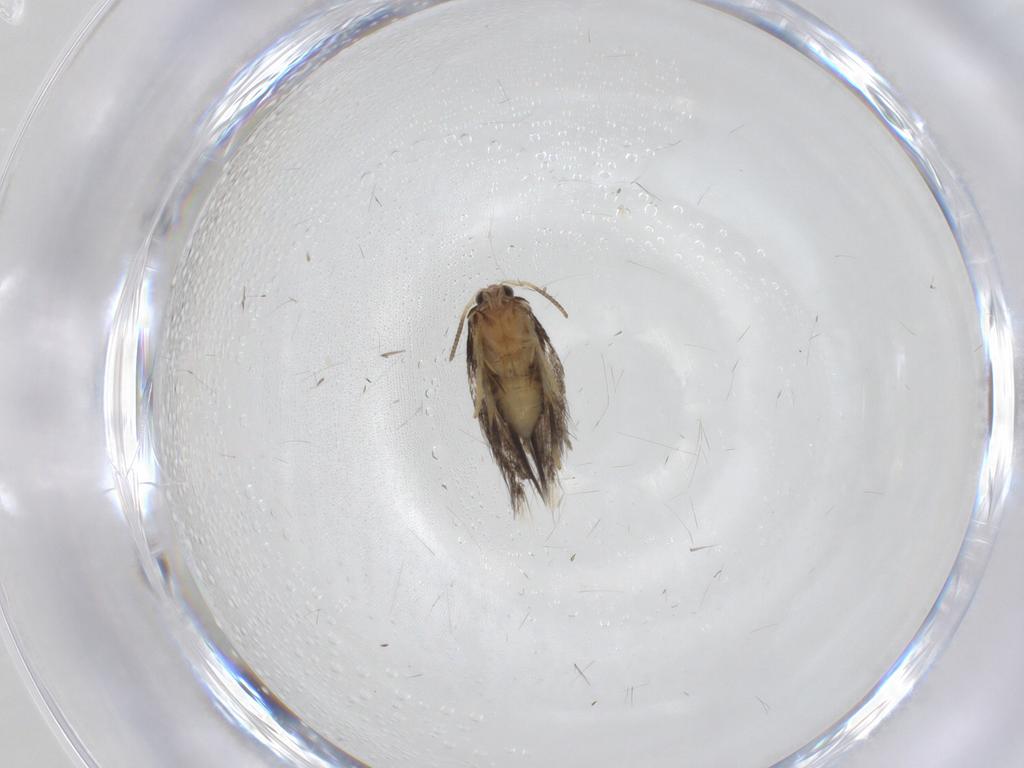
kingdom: Animalia
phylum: Arthropoda
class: Insecta
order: Lepidoptera
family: Nepticulidae
